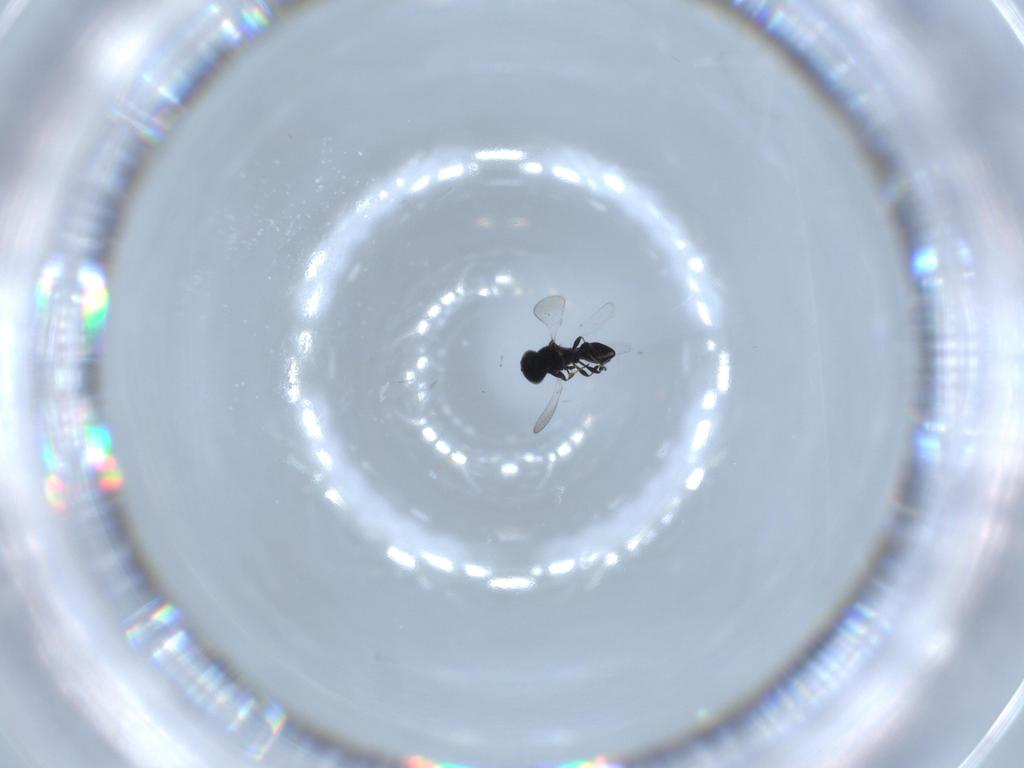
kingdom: Animalia
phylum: Arthropoda
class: Insecta
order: Hymenoptera
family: Platygastridae
